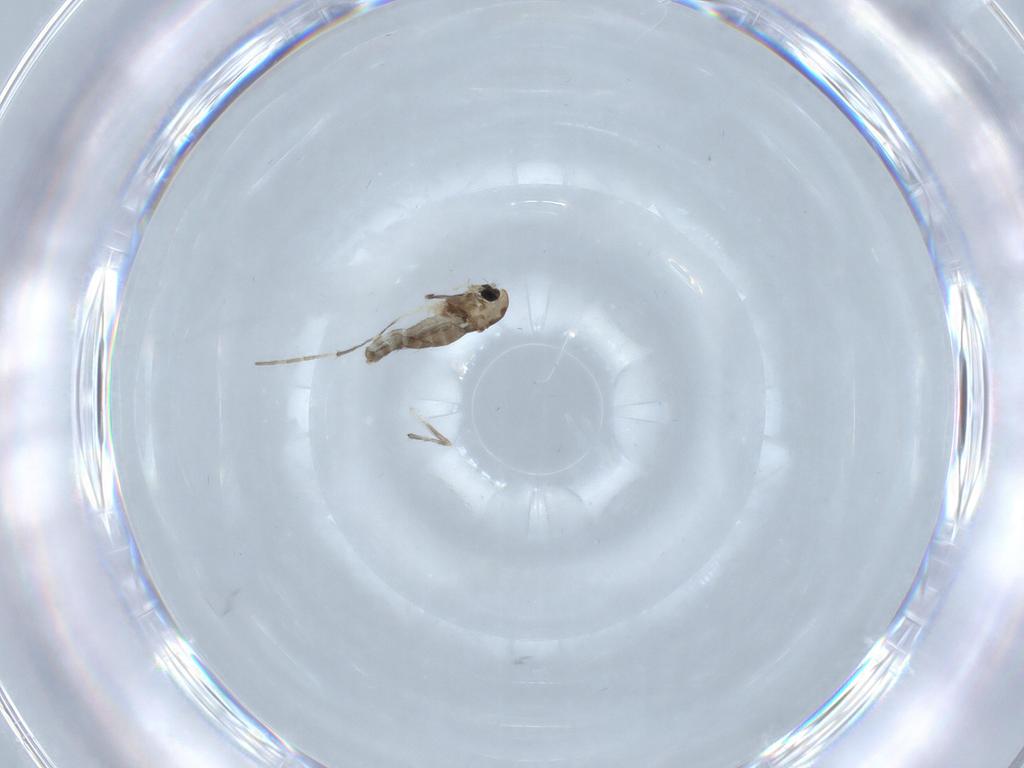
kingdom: Animalia
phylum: Arthropoda
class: Insecta
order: Diptera
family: Chironomidae
